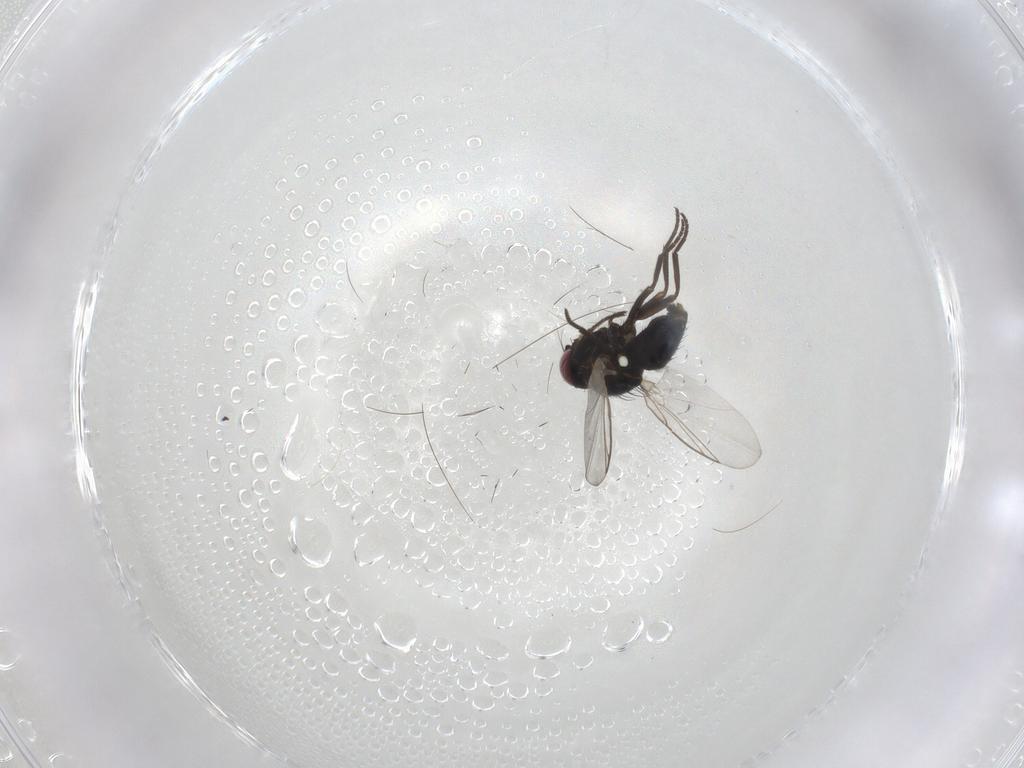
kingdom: Animalia
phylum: Arthropoda
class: Insecta
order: Diptera
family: Agromyzidae
